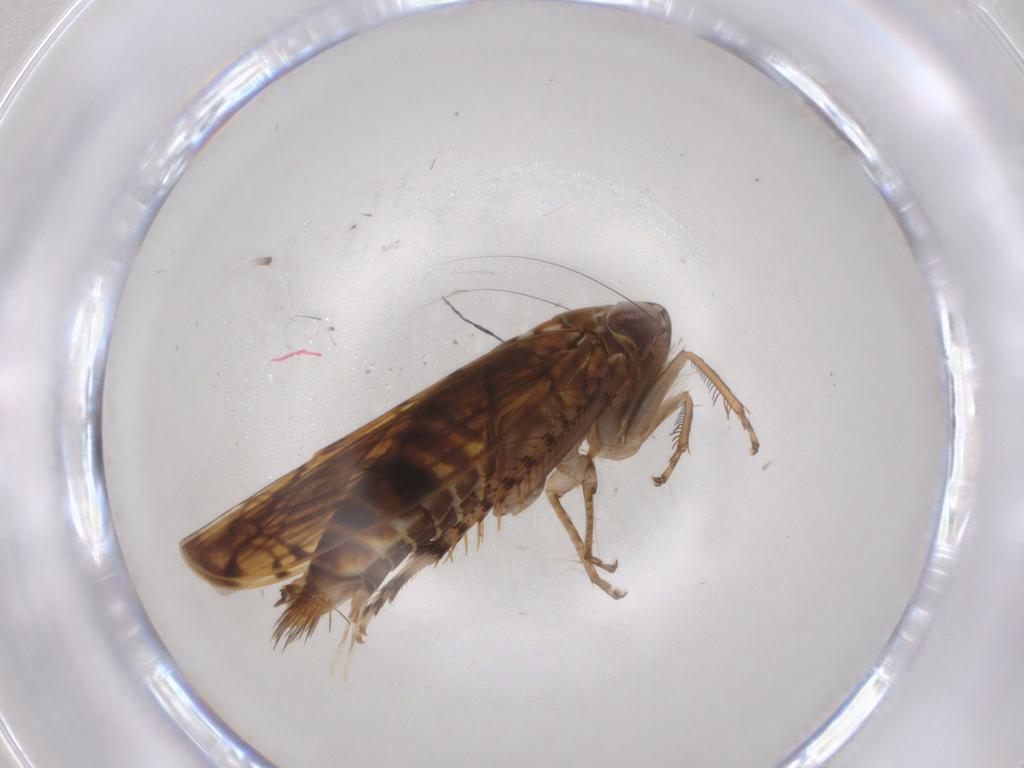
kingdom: Animalia
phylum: Arthropoda
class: Insecta
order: Hemiptera
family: Cicadellidae
